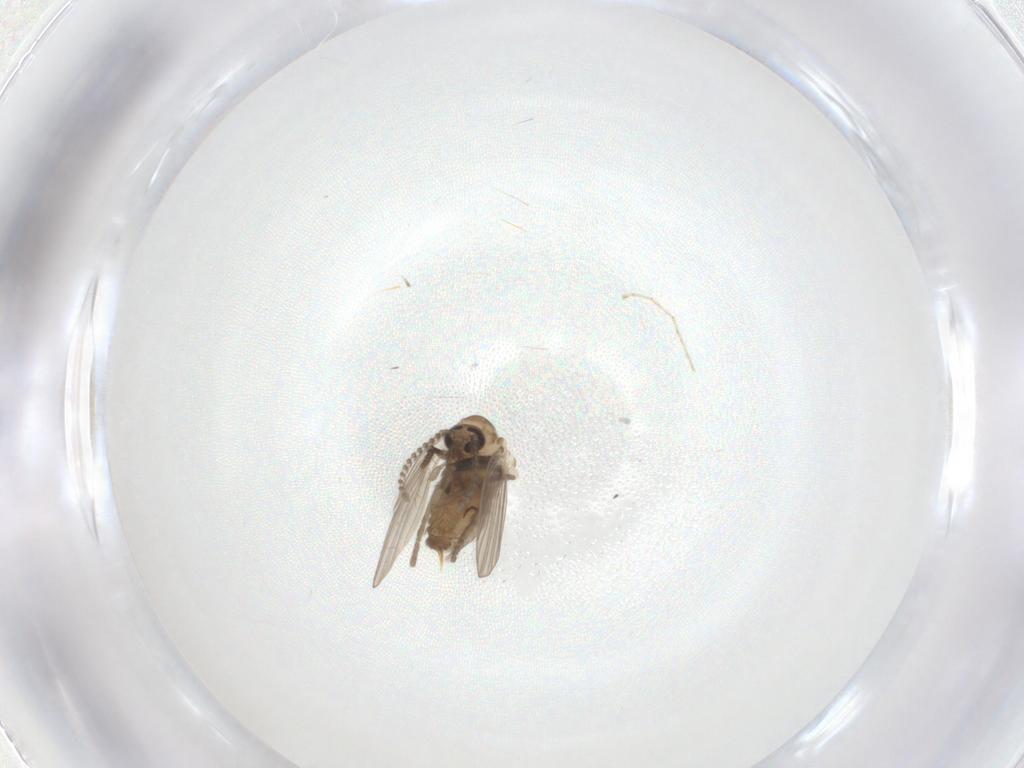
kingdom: Animalia
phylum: Arthropoda
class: Insecta
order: Diptera
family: Psychodidae
